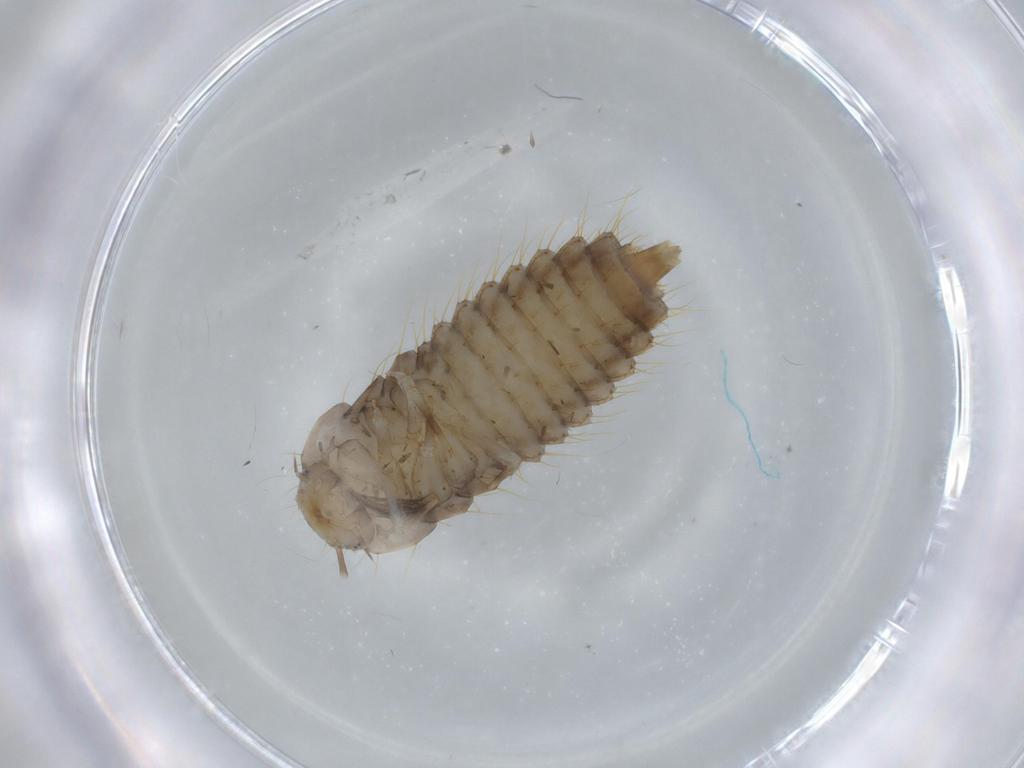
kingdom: Animalia
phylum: Arthropoda
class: Insecta
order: Coleoptera
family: Staphylinidae
